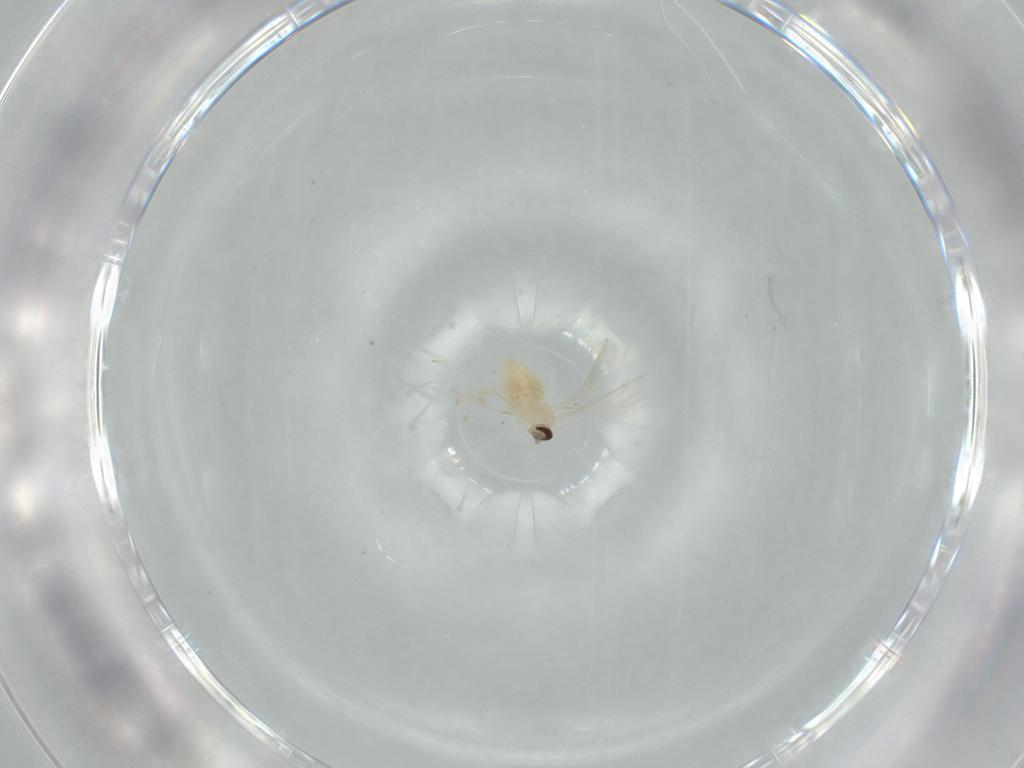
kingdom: Animalia
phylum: Arthropoda
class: Insecta
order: Diptera
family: Cecidomyiidae
